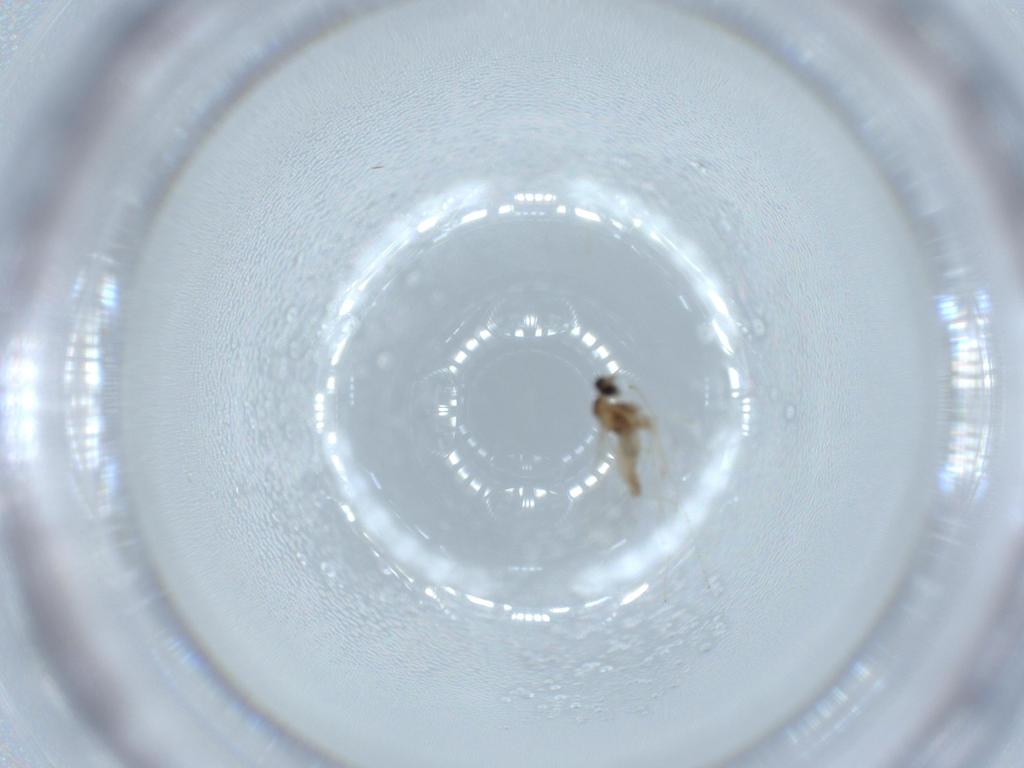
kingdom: Animalia
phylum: Arthropoda
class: Insecta
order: Diptera
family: Cecidomyiidae
